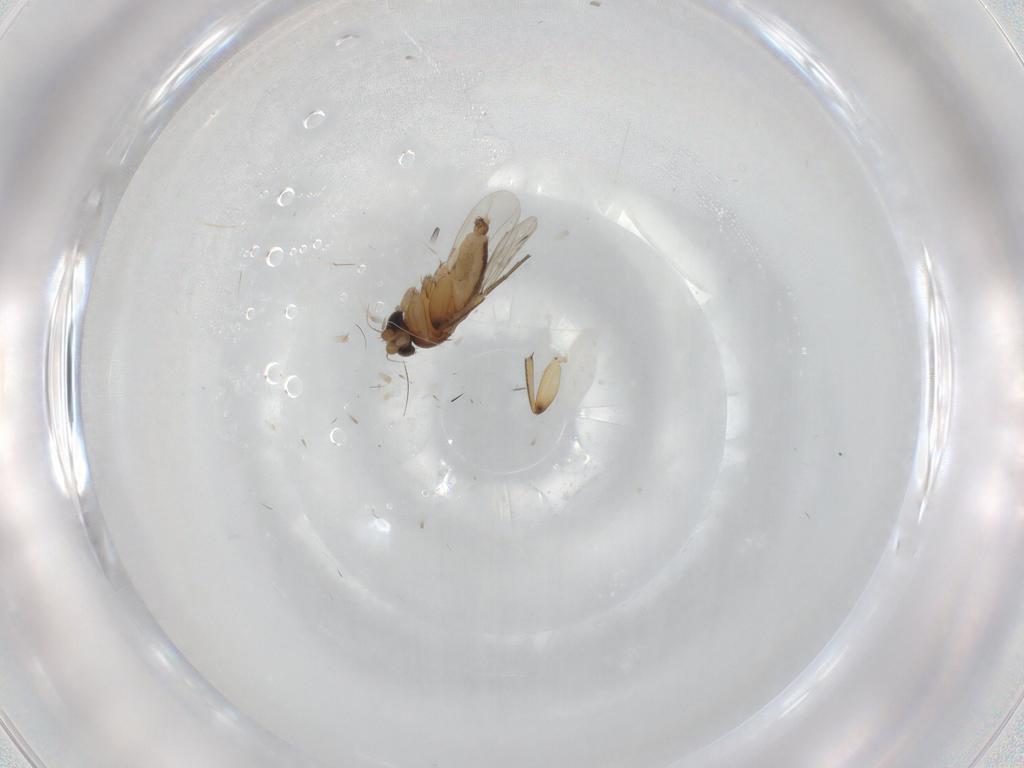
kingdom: Animalia
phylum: Arthropoda
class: Insecta
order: Diptera
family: Phoridae
